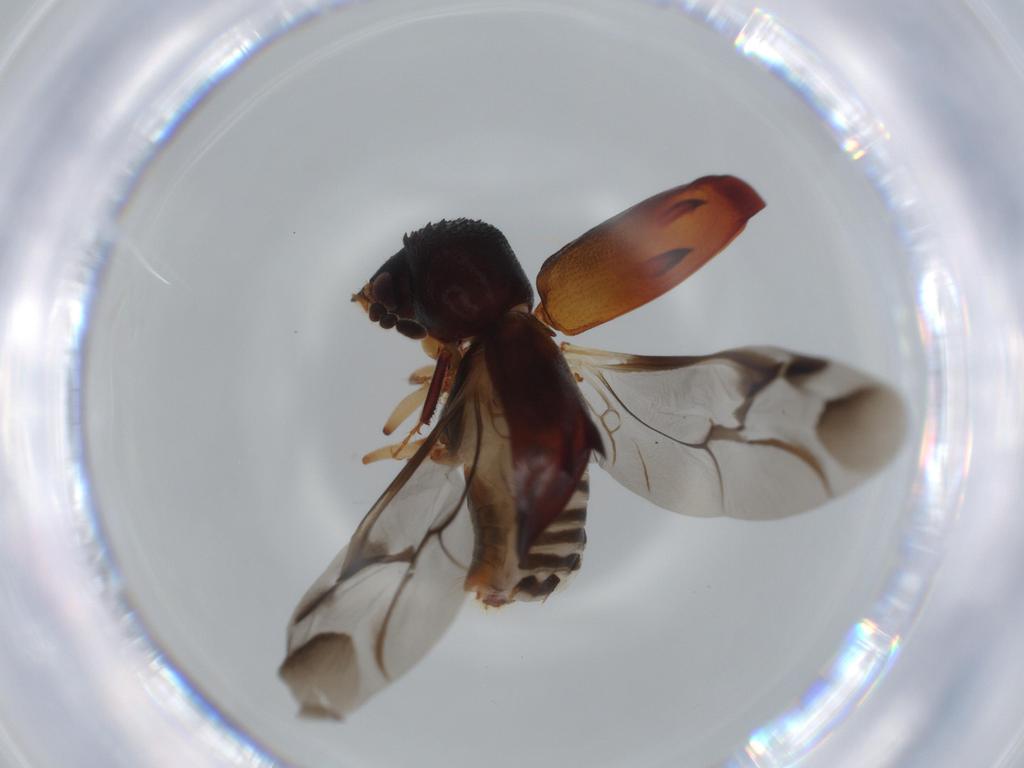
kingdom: Animalia
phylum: Arthropoda
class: Insecta
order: Coleoptera
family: Bostrichidae
